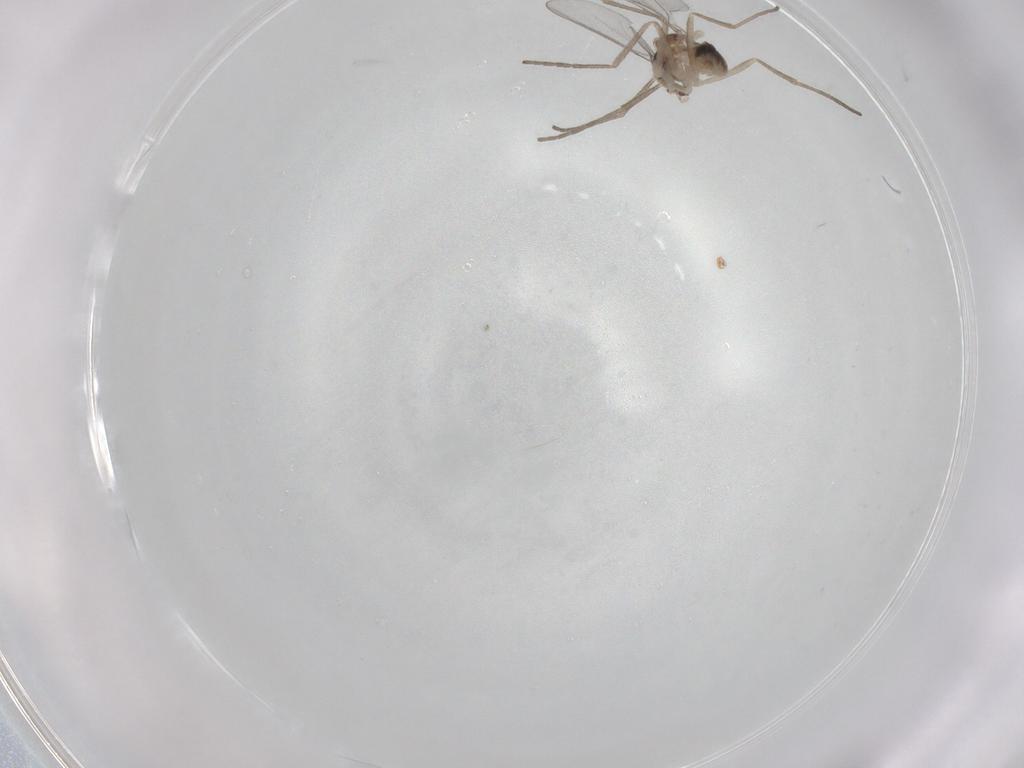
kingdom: Animalia
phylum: Arthropoda
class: Insecta
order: Diptera
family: Cecidomyiidae
